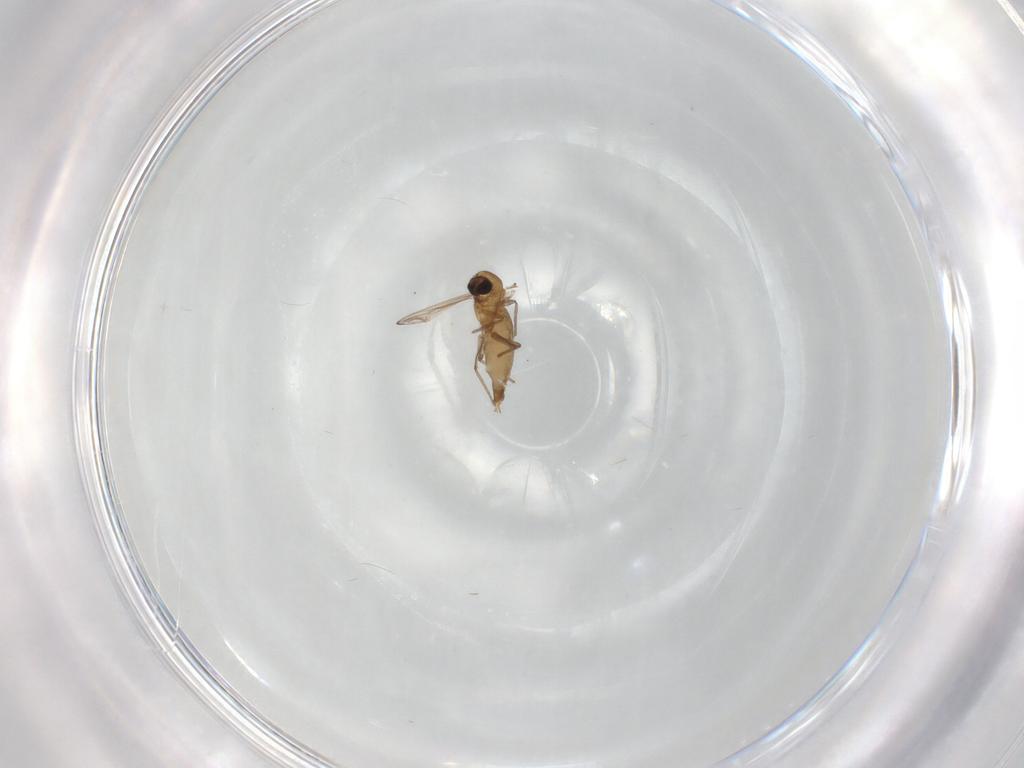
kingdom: Animalia
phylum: Arthropoda
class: Insecta
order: Diptera
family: Chironomidae
